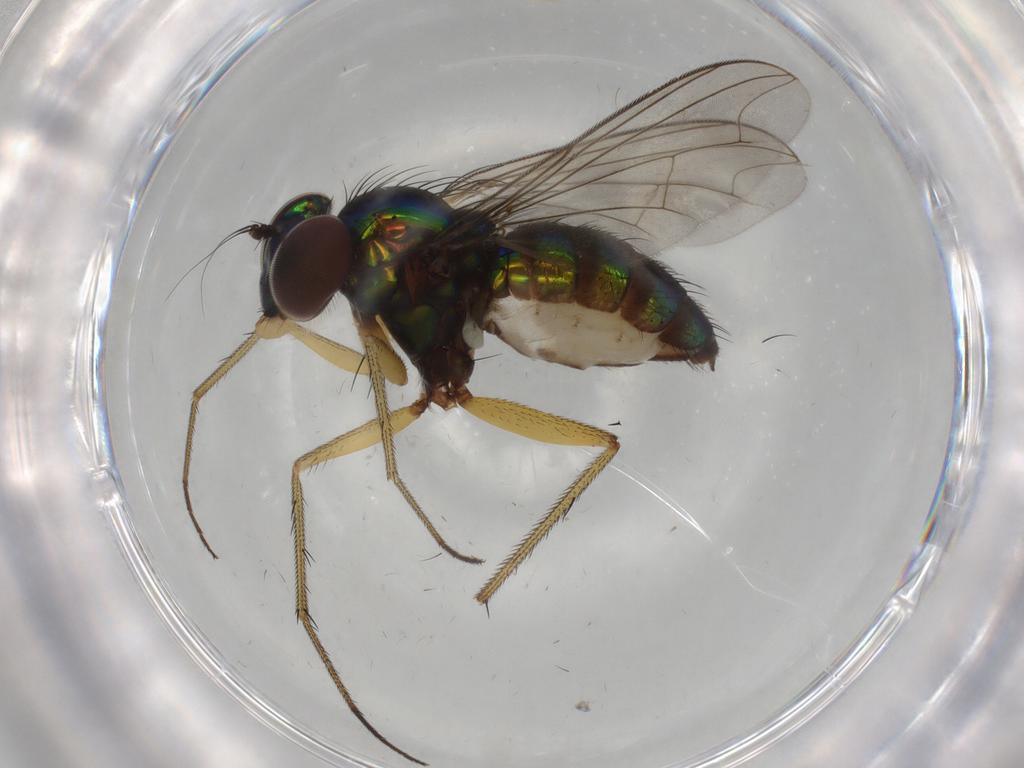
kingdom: Animalia
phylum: Arthropoda
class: Insecta
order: Diptera
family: Dolichopodidae
